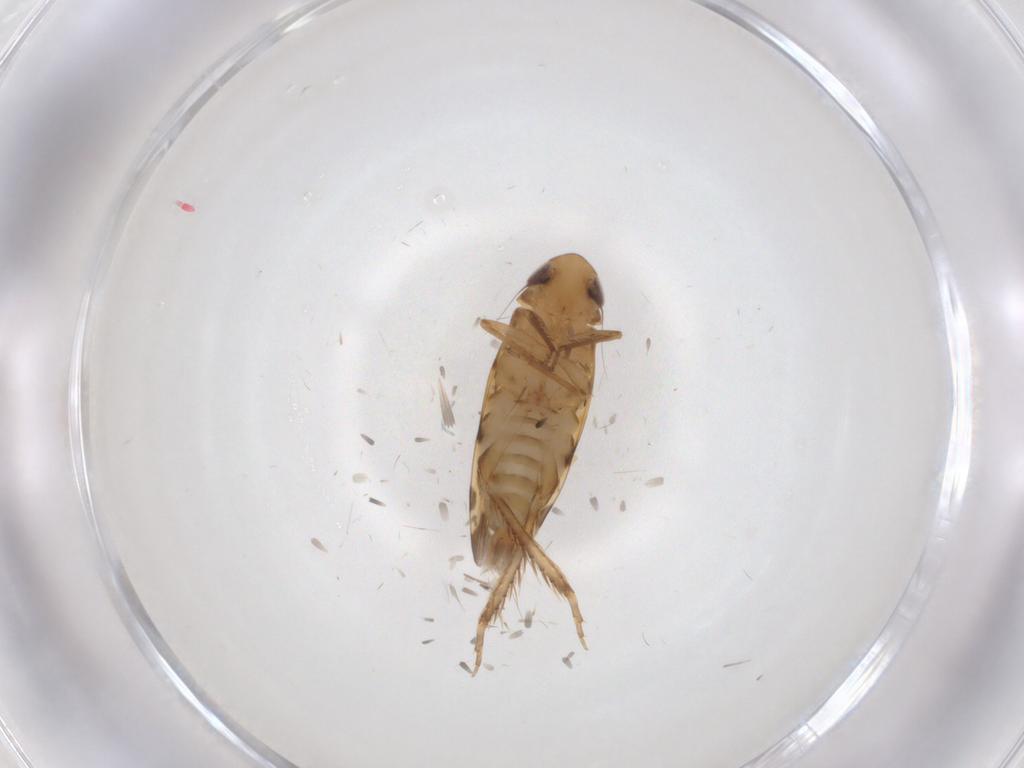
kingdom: Animalia
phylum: Arthropoda
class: Insecta
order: Hemiptera
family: Cicadellidae
